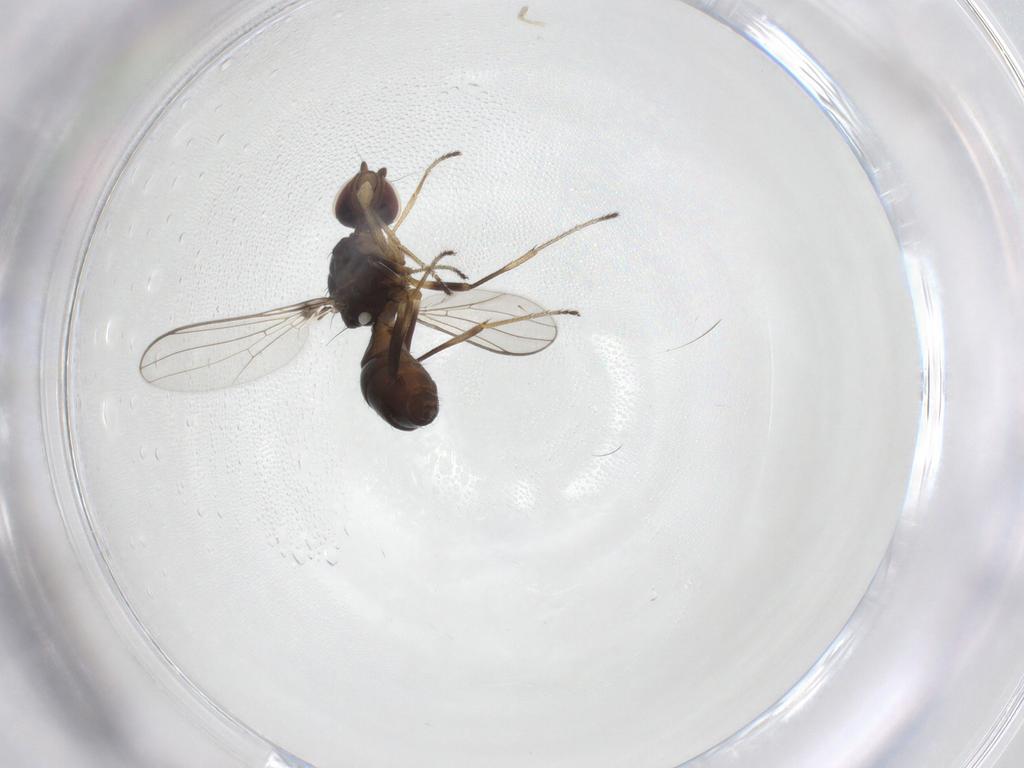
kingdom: Animalia
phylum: Arthropoda
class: Insecta
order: Diptera
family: Sepsidae
